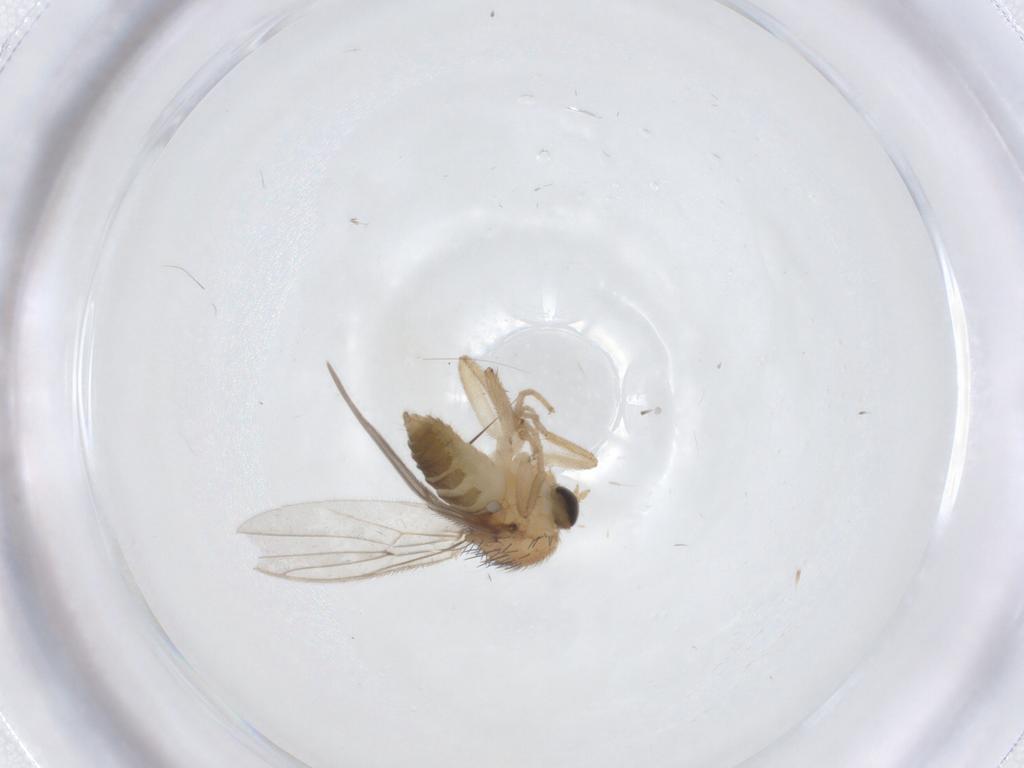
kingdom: Animalia
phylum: Arthropoda
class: Insecta
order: Diptera
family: Hybotidae
